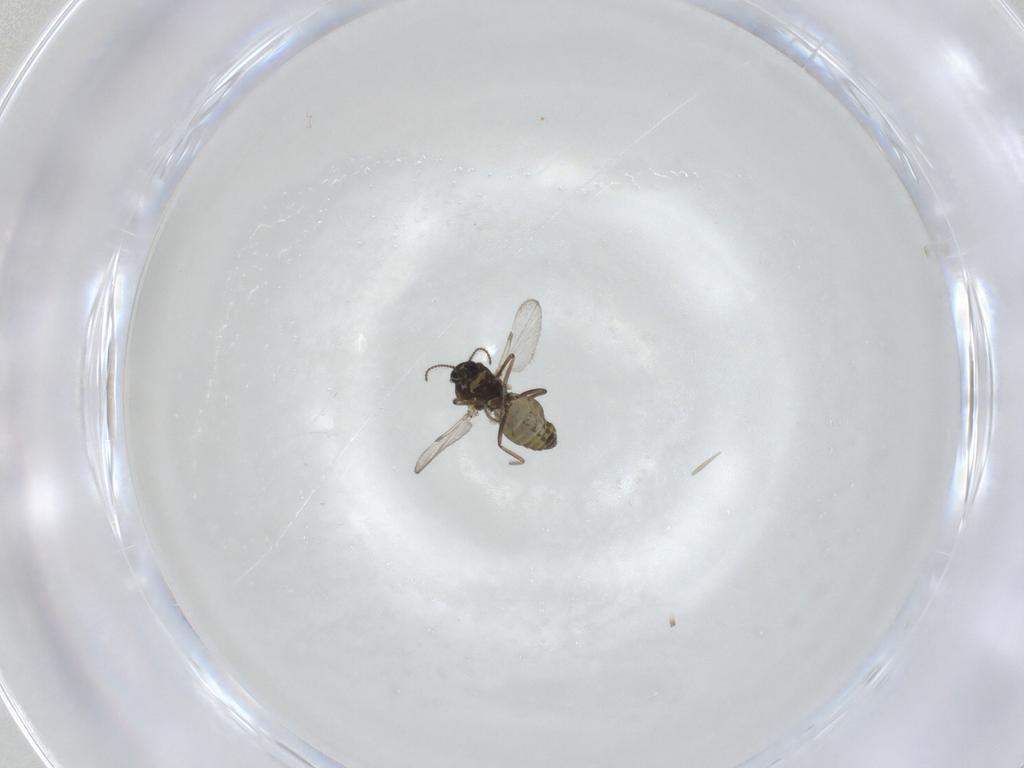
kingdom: Animalia
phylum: Arthropoda
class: Insecta
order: Diptera
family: Ceratopogonidae
